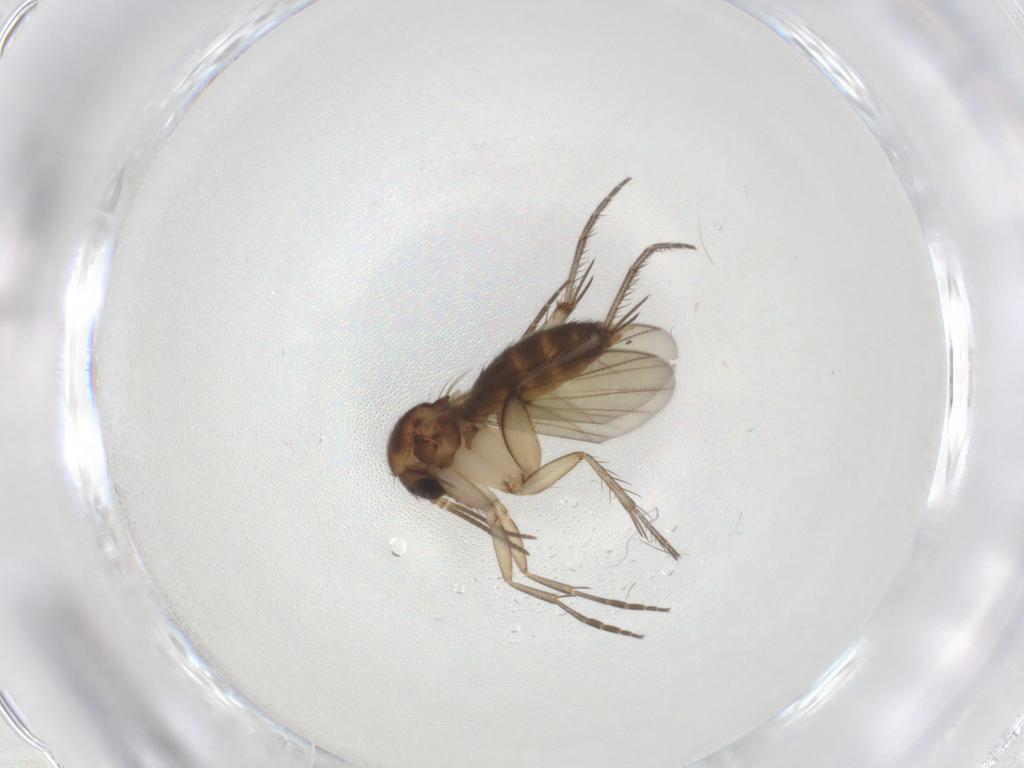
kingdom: Animalia
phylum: Arthropoda
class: Insecta
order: Diptera
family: Sciaridae
